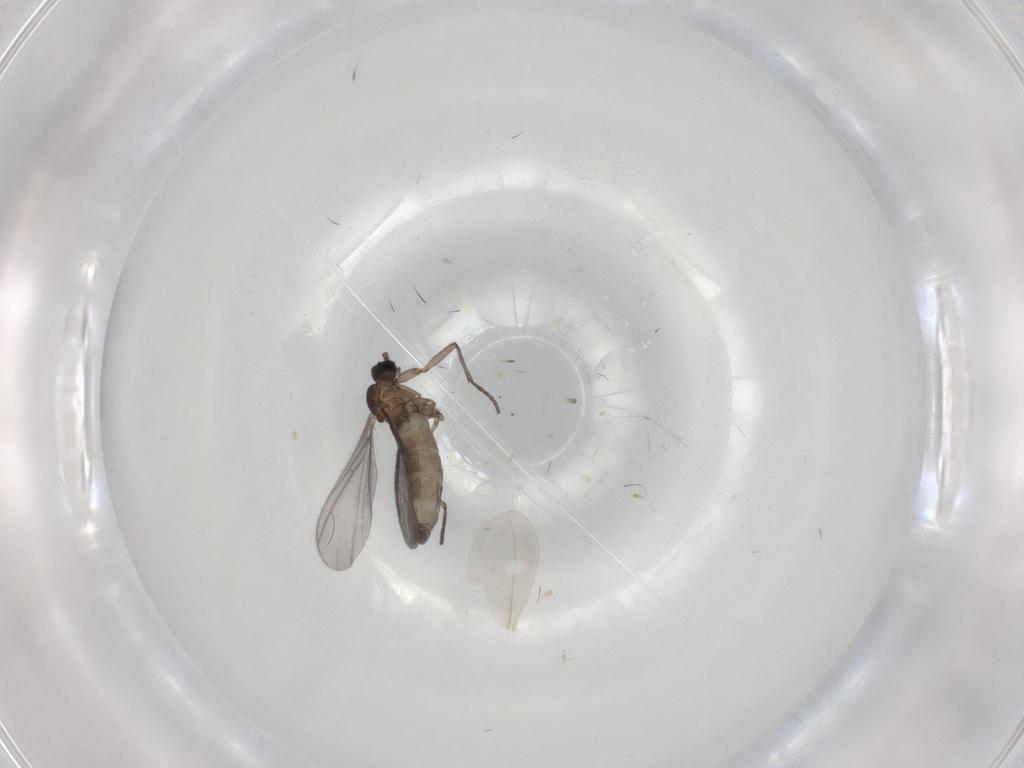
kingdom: Animalia
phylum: Arthropoda
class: Insecta
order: Diptera
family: Sciaridae
